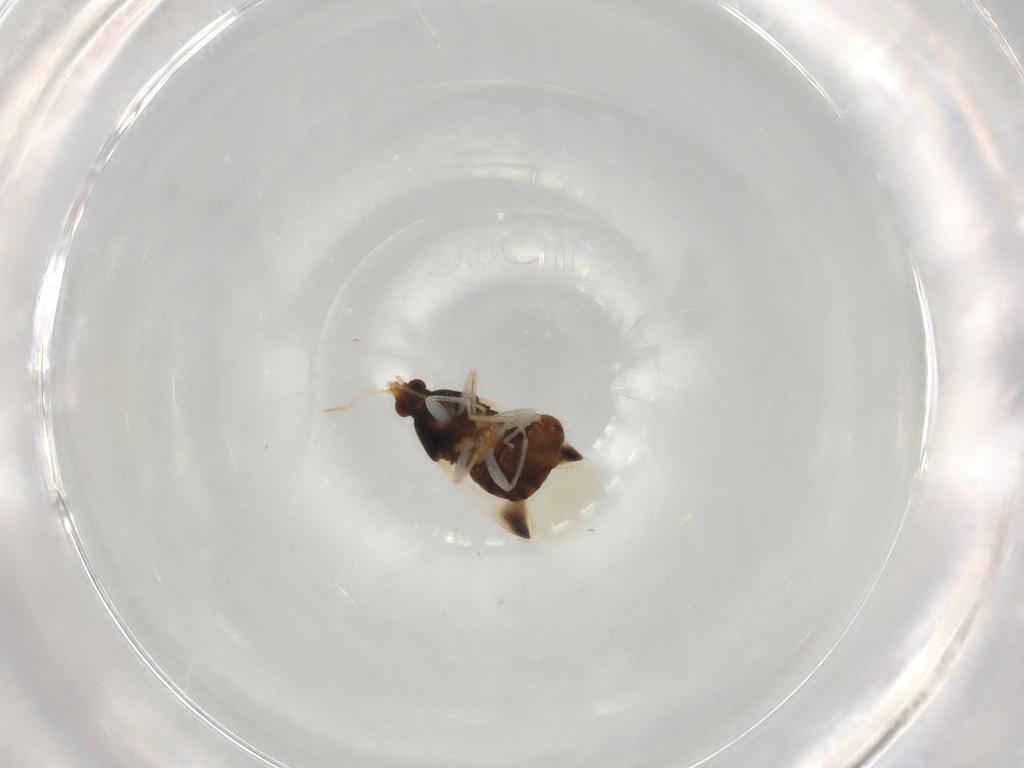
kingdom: Animalia
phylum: Arthropoda
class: Insecta
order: Hemiptera
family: Anthocoridae
